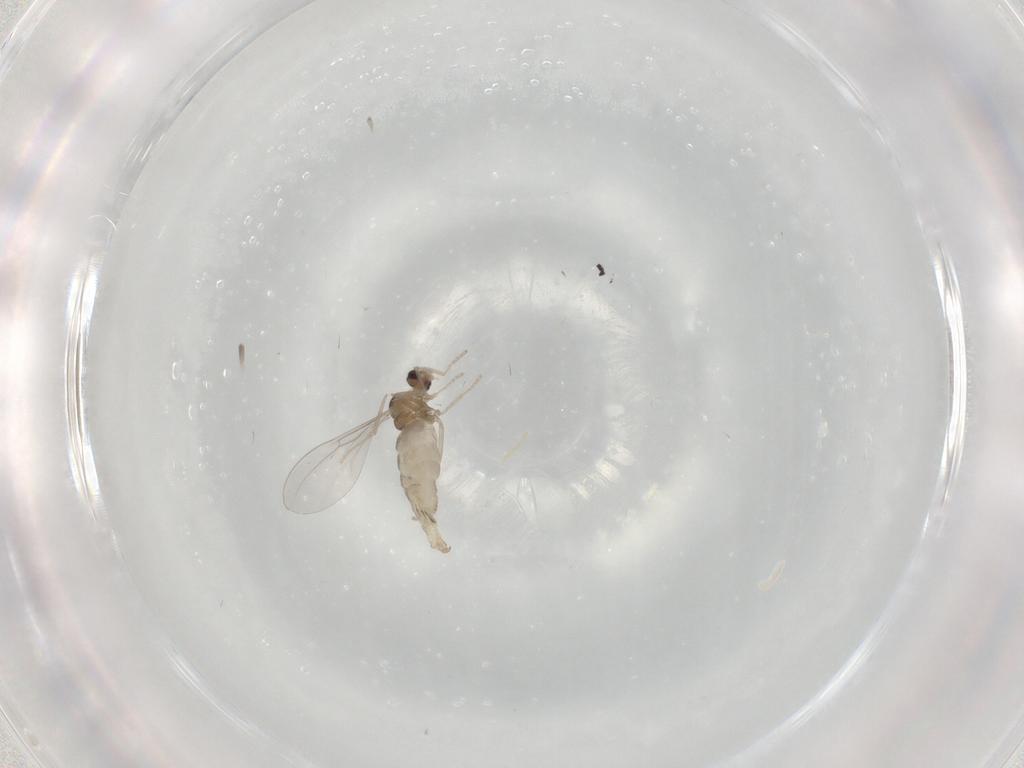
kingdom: Animalia
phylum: Arthropoda
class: Insecta
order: Diptera
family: Cecidomyiidae
